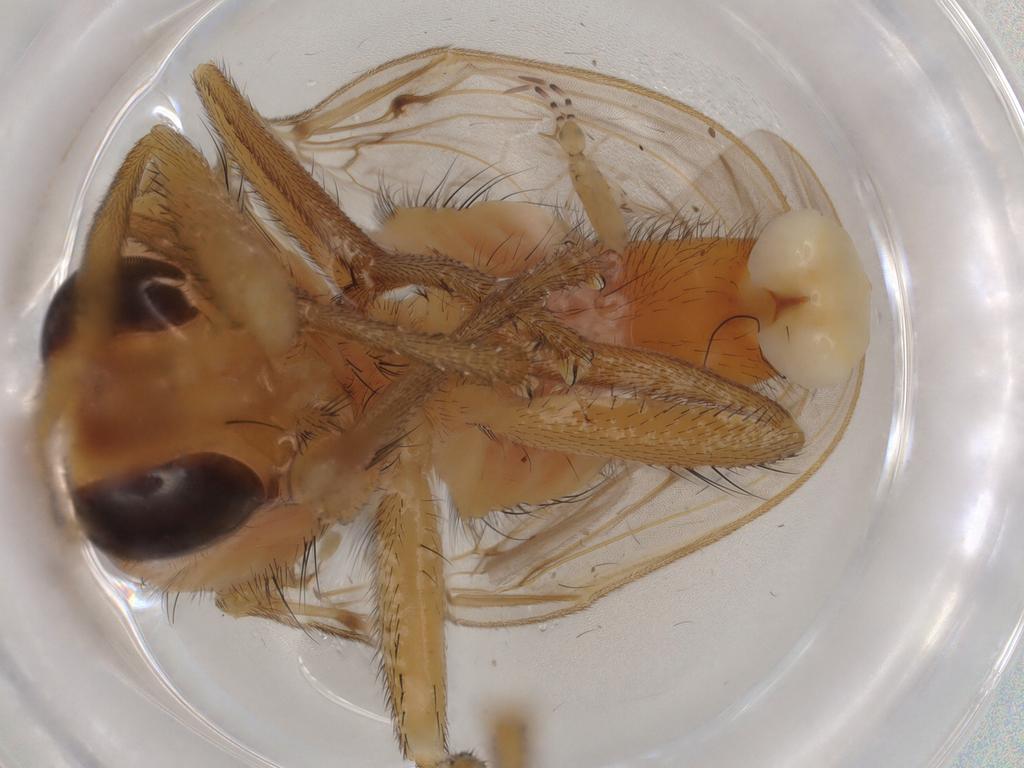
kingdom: Animalia
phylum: Arthropoda
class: Insecta
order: Diptera
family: Pyrgotidae
